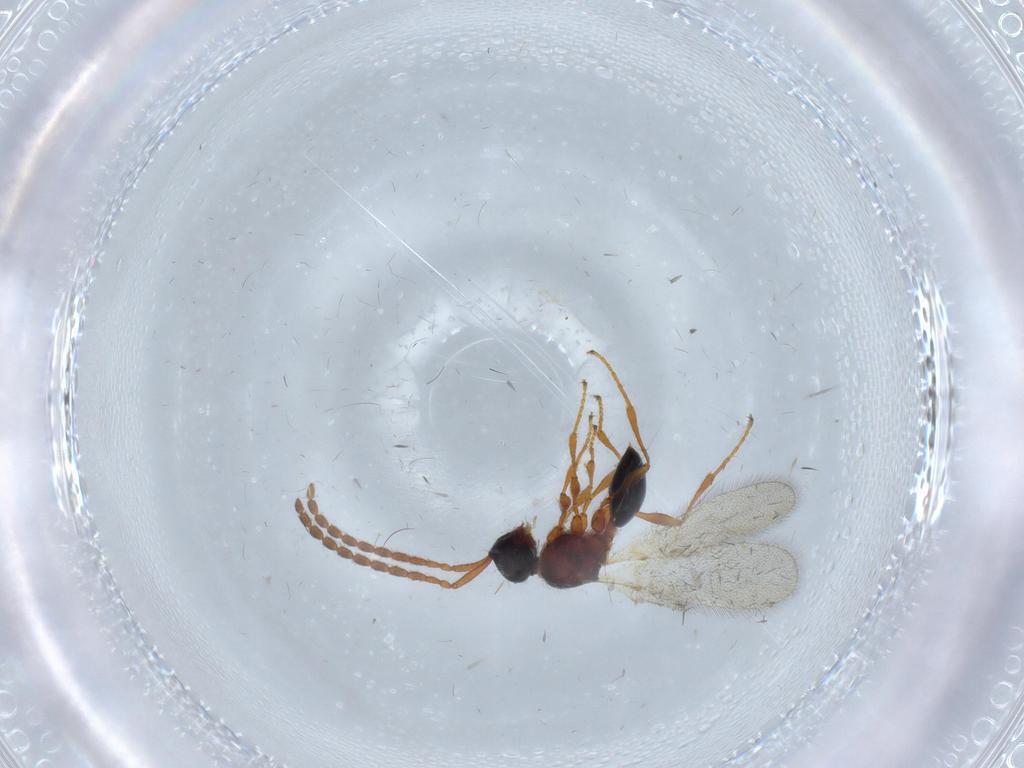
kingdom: Animalia
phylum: Arthropoda
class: Insecta
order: Hymenoptera
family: Diapriidae
